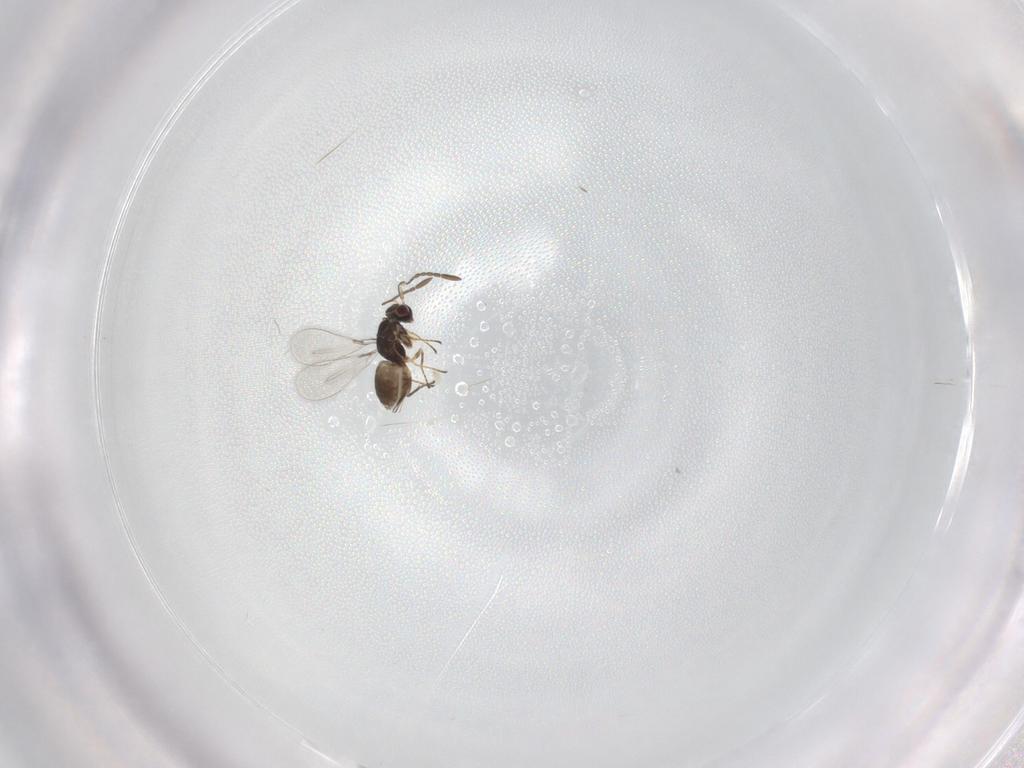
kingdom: Animalia
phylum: Arthropoda
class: Insecta
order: Hymenoptera
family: Mymaridae
